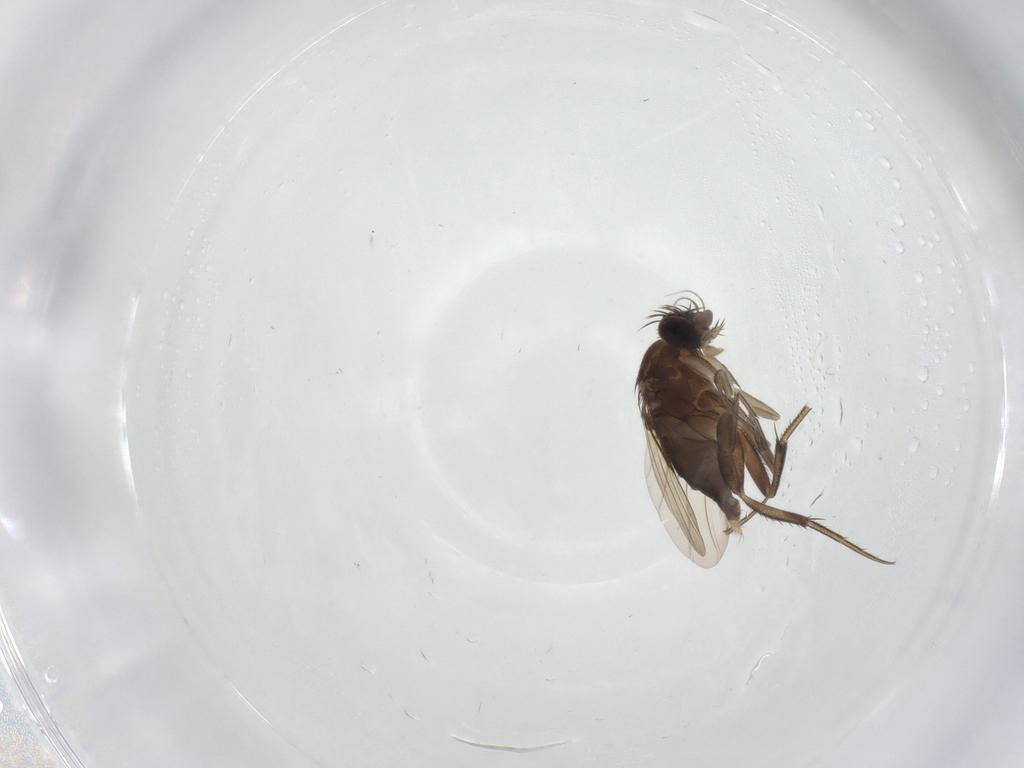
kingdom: Animalia
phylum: Arthropoda
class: Insecta
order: Diptera
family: Phoridae
